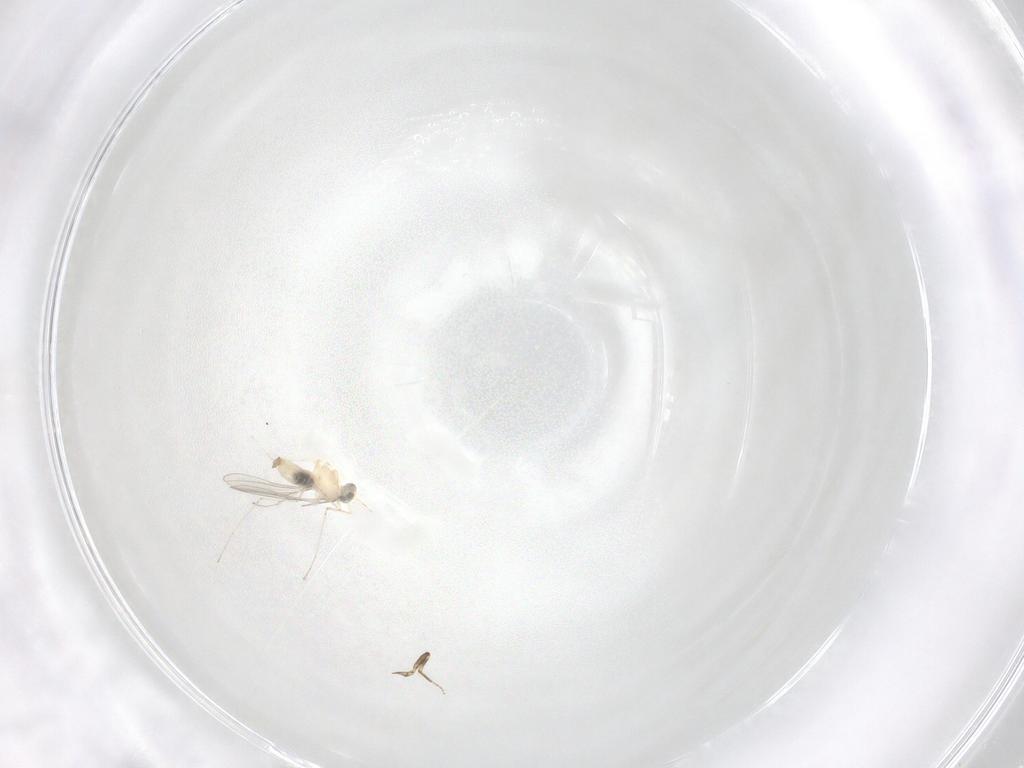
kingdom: Animalia
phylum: Arthropoda
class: Insecta
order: Diptera
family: Cecidomyiidae
